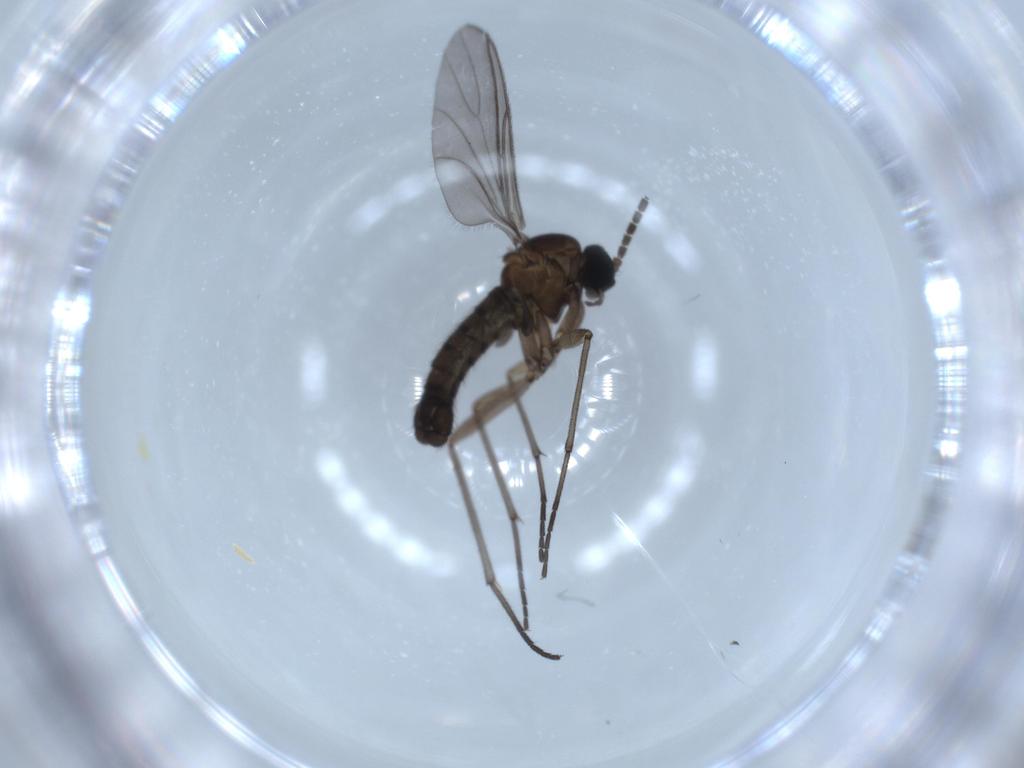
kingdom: Animalia
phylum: Arthropoda
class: Insecta
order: Diptera
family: Sciaridae
